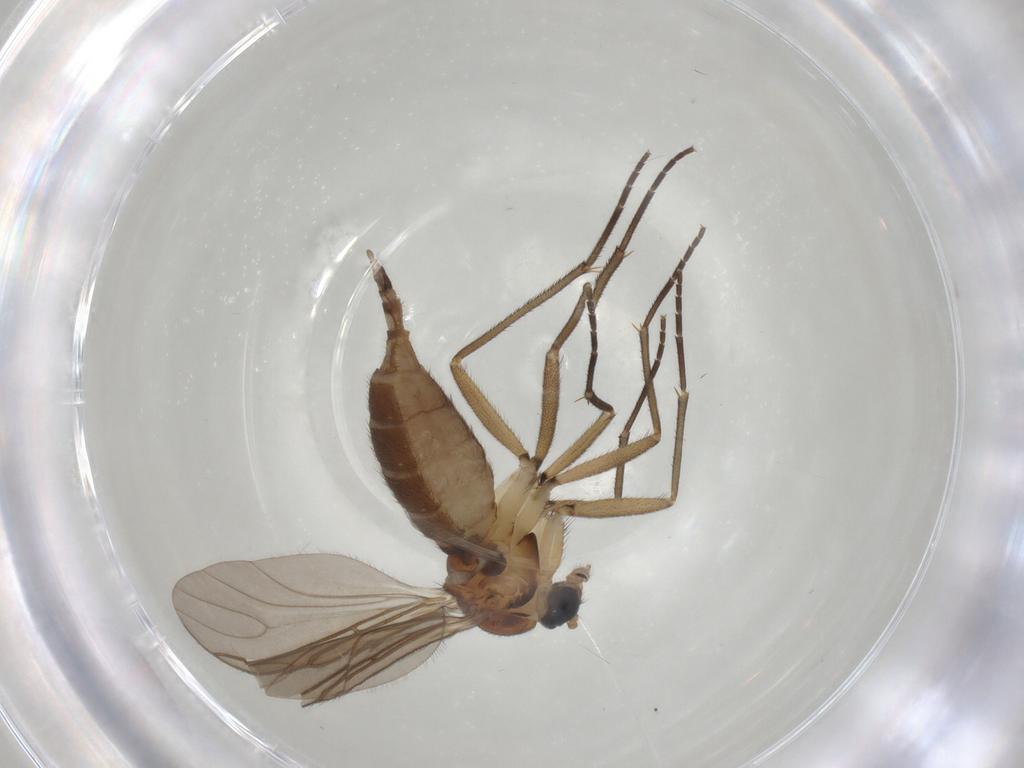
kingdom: Animalia
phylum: Arthropoda
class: Insecta
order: Diptera
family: Sciaridae
